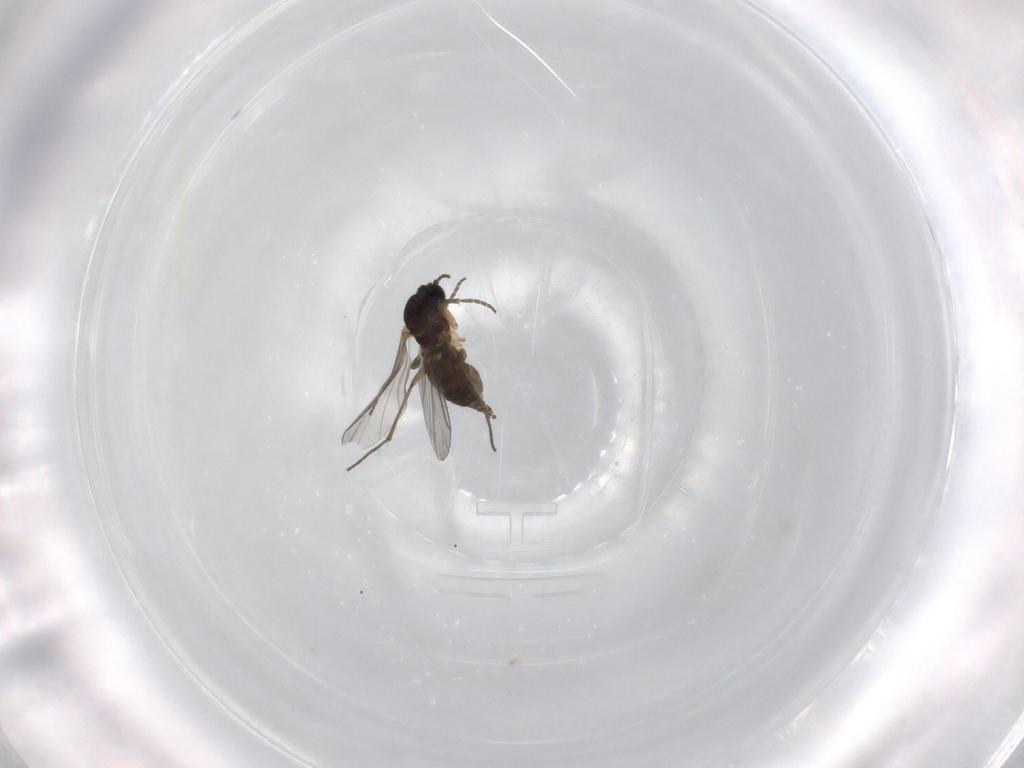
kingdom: Animalia
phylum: Arthropoda
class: Insecta
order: Diptera
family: Sciaridae
